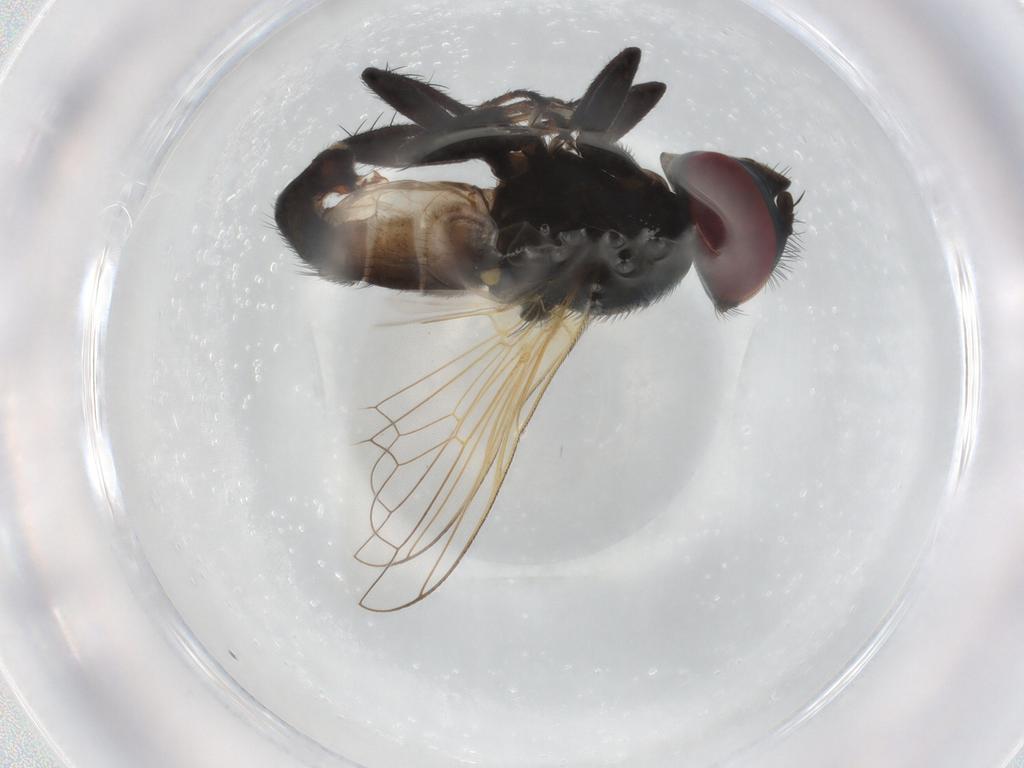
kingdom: Animalia
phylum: Arthropoda
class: Insecta
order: Diptera
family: Tachinidae
